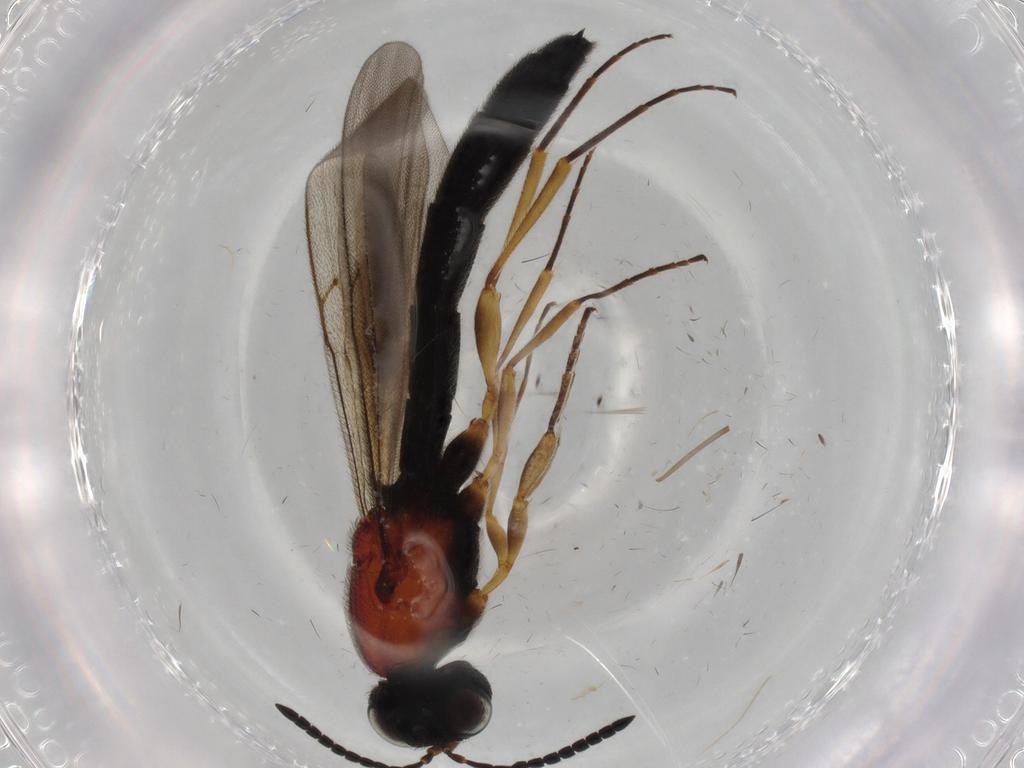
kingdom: Animalia
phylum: Arthropoda
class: Insecta
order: Hymenoptera
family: Scelionidae
